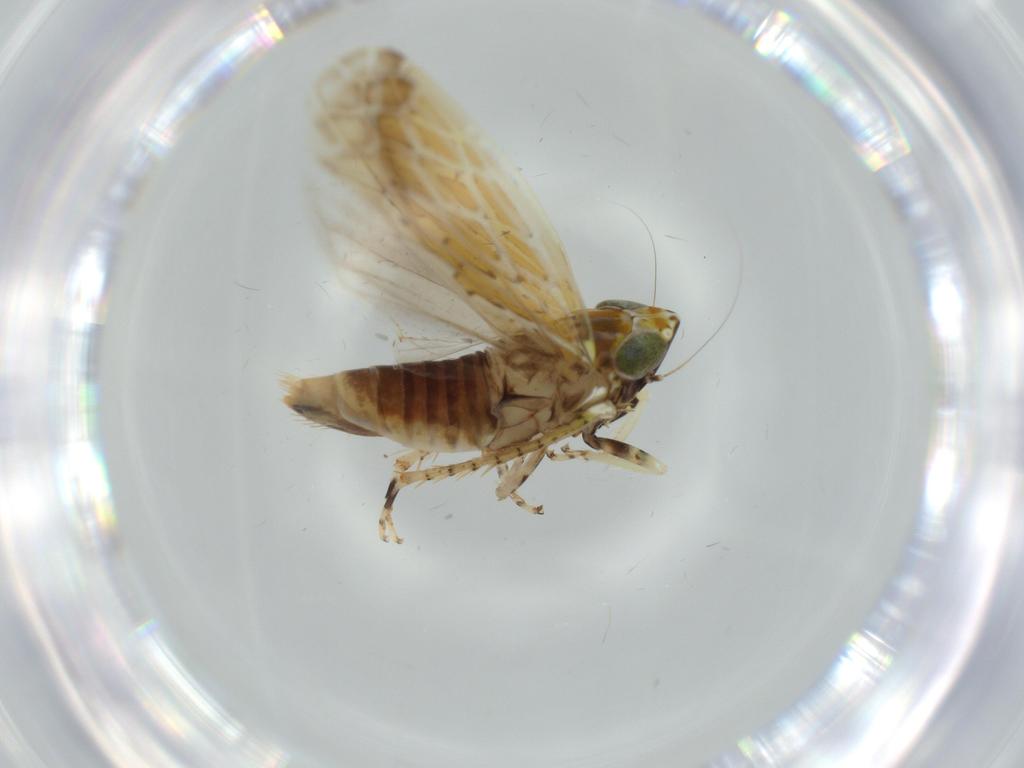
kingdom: Animalia
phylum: Arthropoda
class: Insecta
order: Hemiptera
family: Cicadellidae
